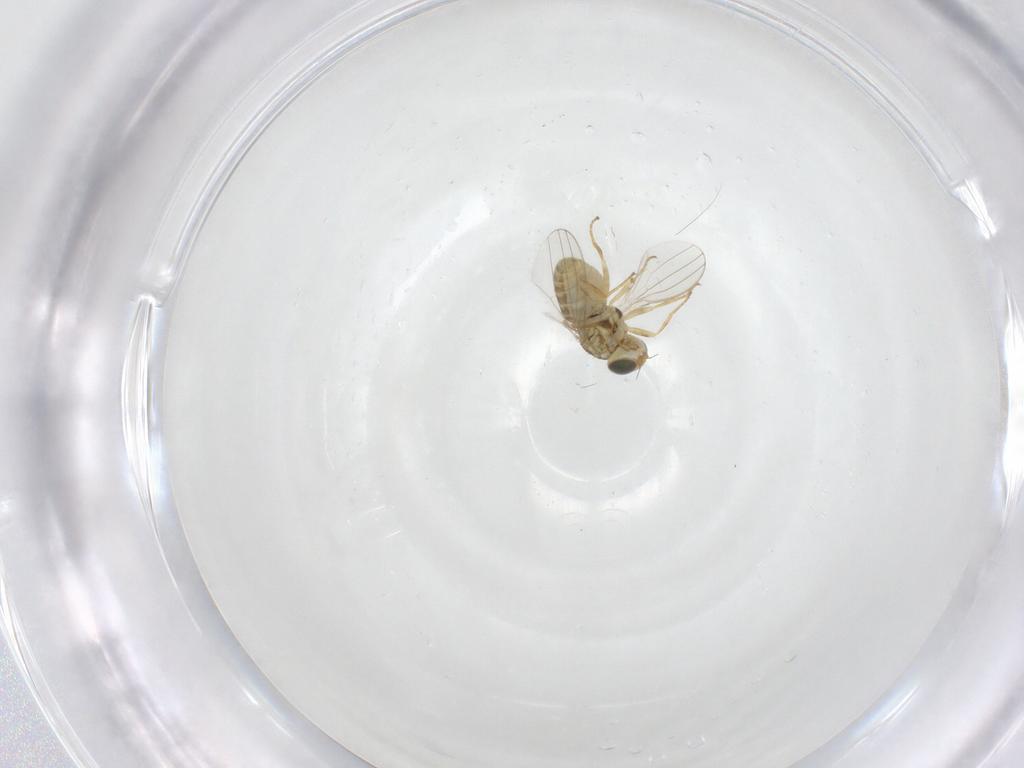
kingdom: Animalia
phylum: Arthropoda
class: Insecta
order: Diptera
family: Chyromyidae
